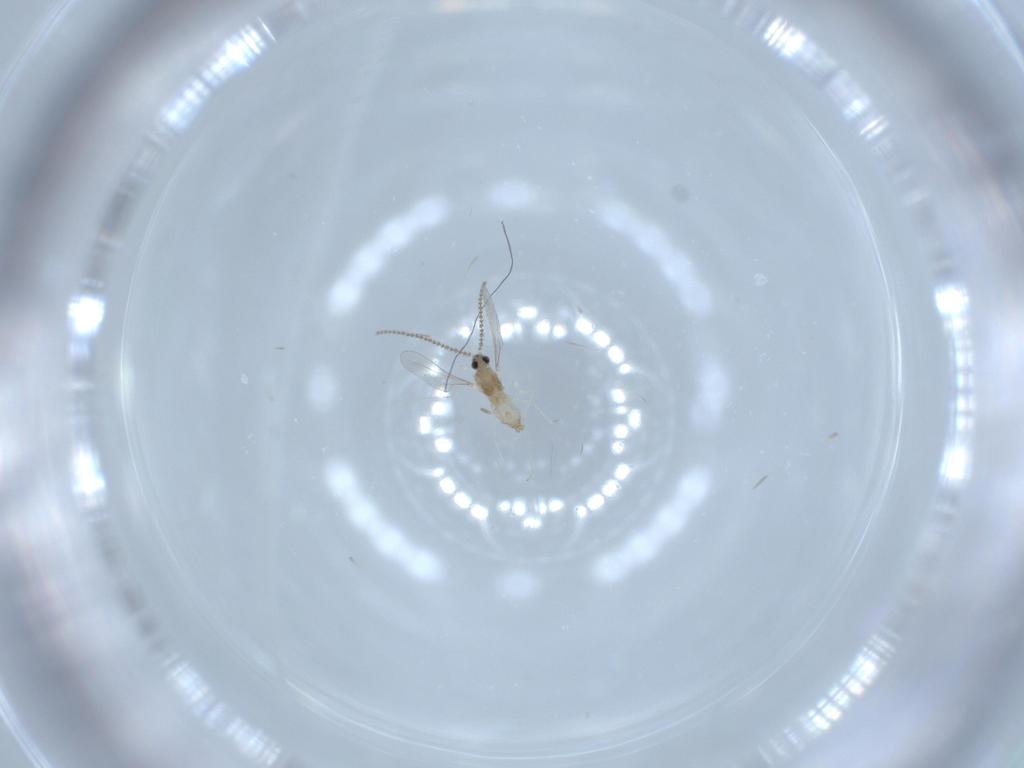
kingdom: Animalia
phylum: Arthropoda
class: Insecta
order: Diptera
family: Cecidomyiidae
